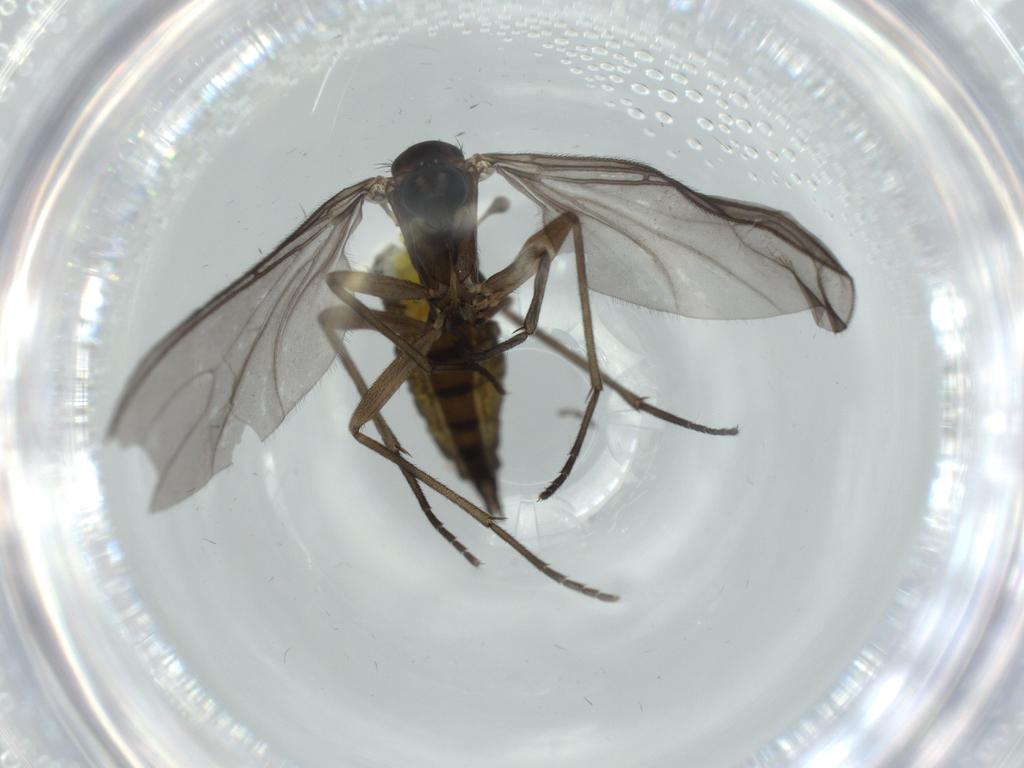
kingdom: Animalia
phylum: Arthropoda
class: Insecta
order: Diptera
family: Sciaridae
